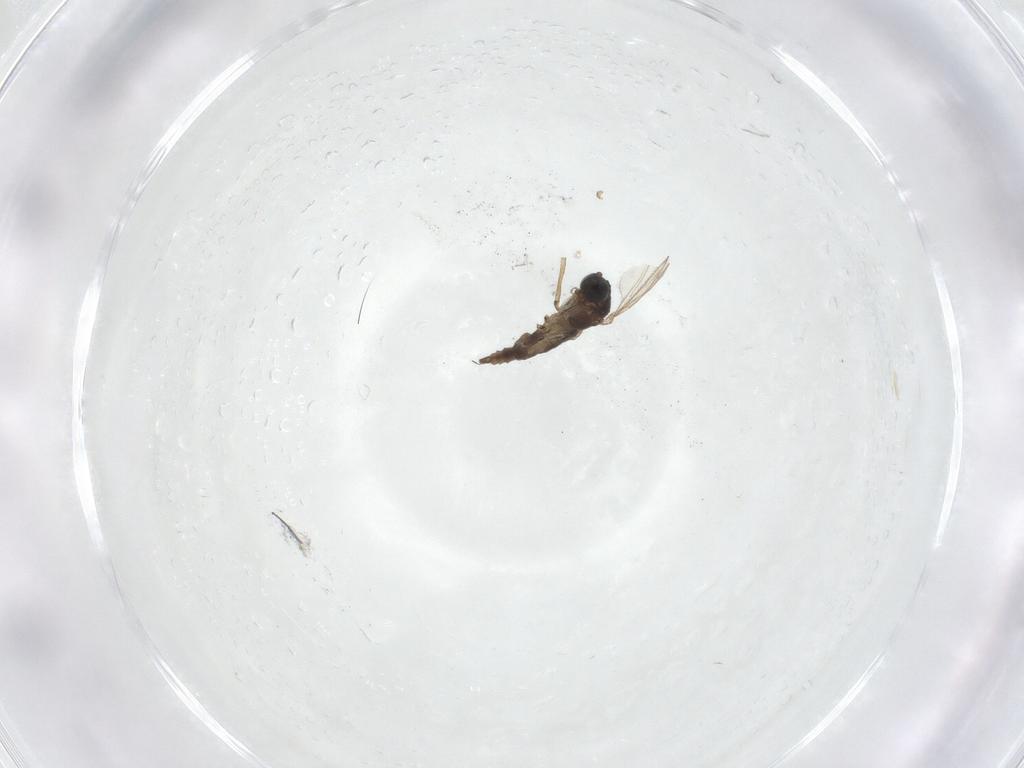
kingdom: Animalia
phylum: Arthropoda
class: Insecta
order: Diptera
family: Sciaridae
